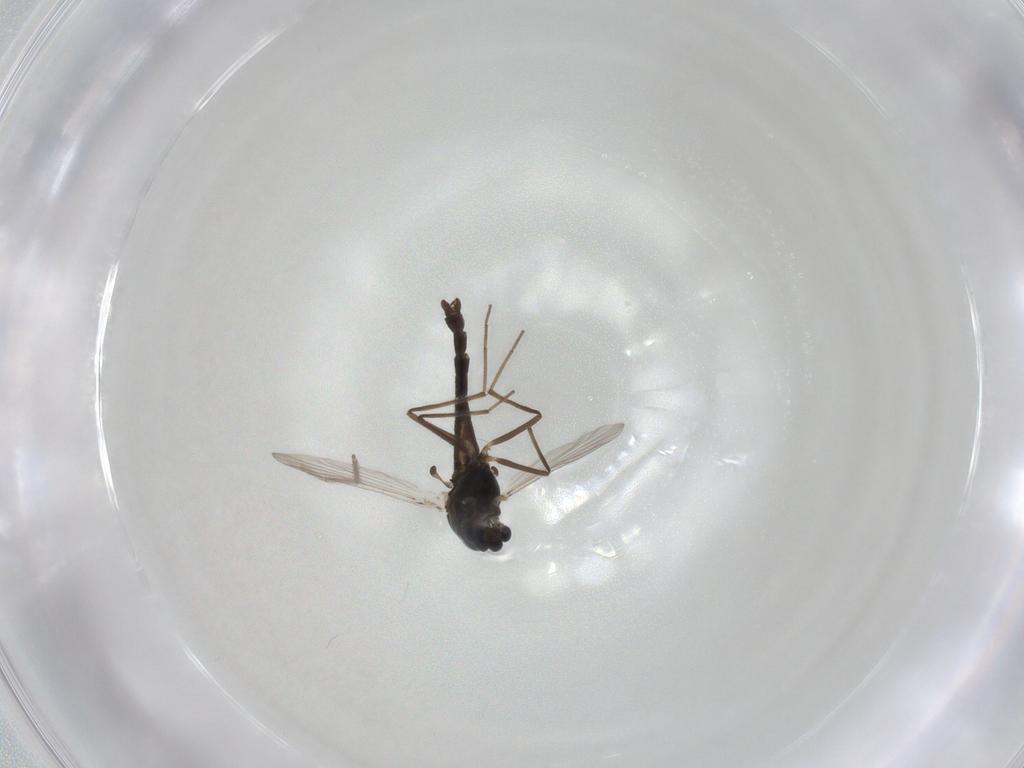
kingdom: Animalia
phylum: Arthropoda
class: Insecta
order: Diptera
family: Chironomidae
